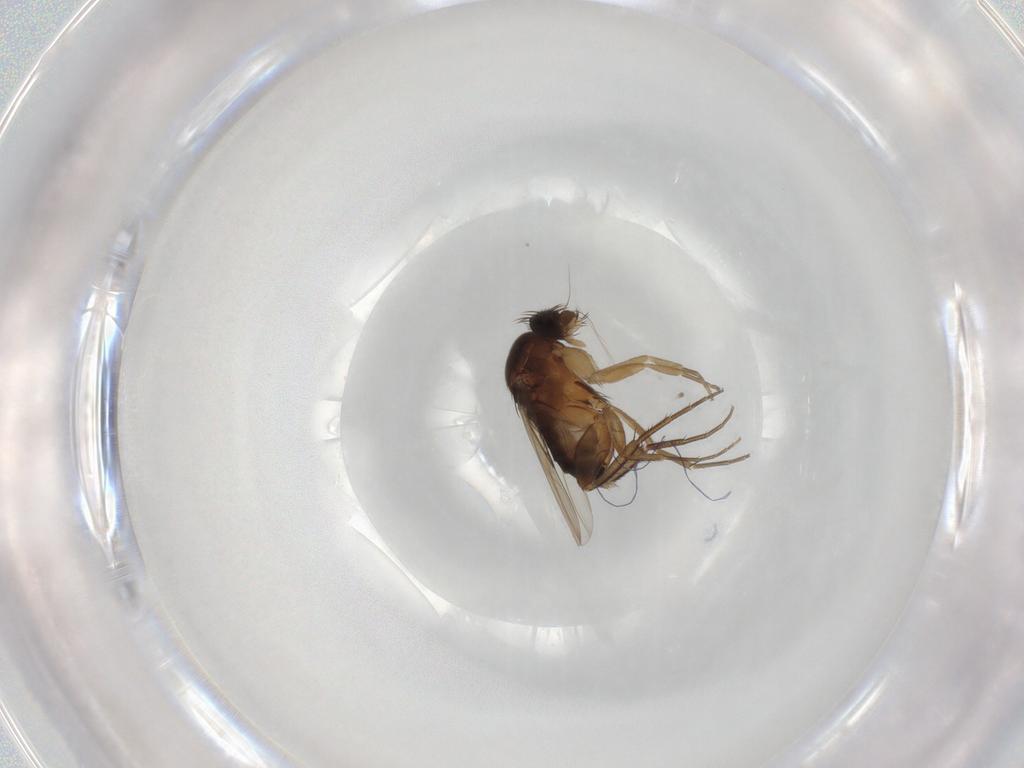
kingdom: Animalia
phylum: Arthropoda
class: Insecta
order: Diptera
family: Phoridae
